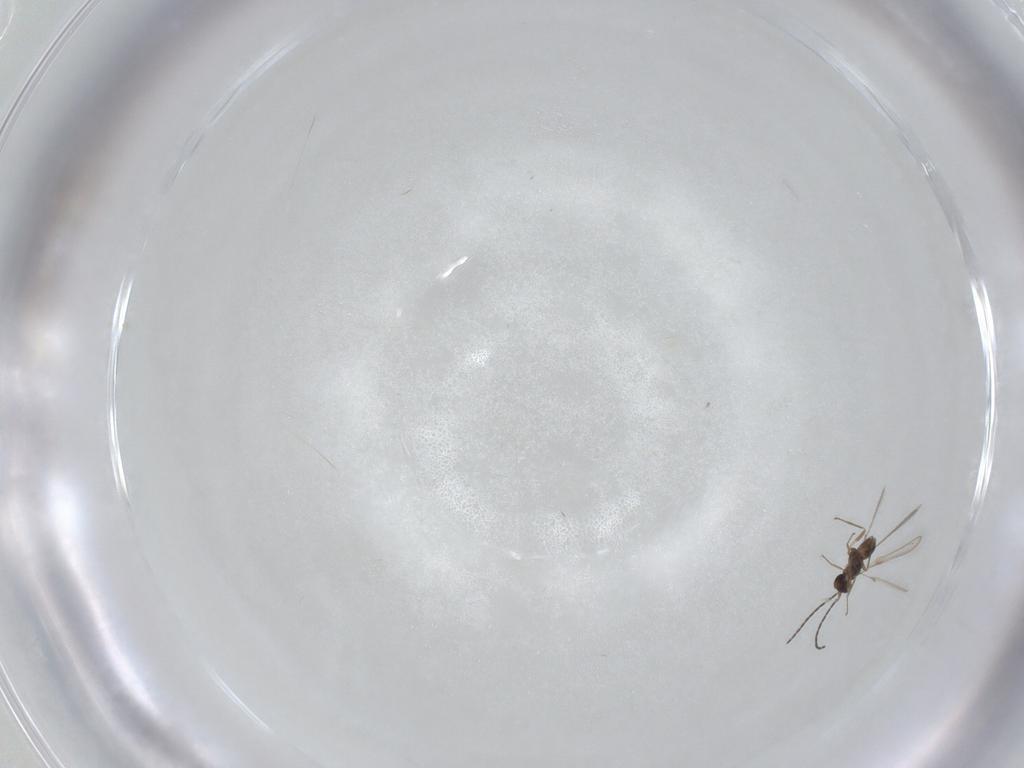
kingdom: Animalia
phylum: Arthropoda
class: Insecta
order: Hymenoptera
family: Mymaridae
